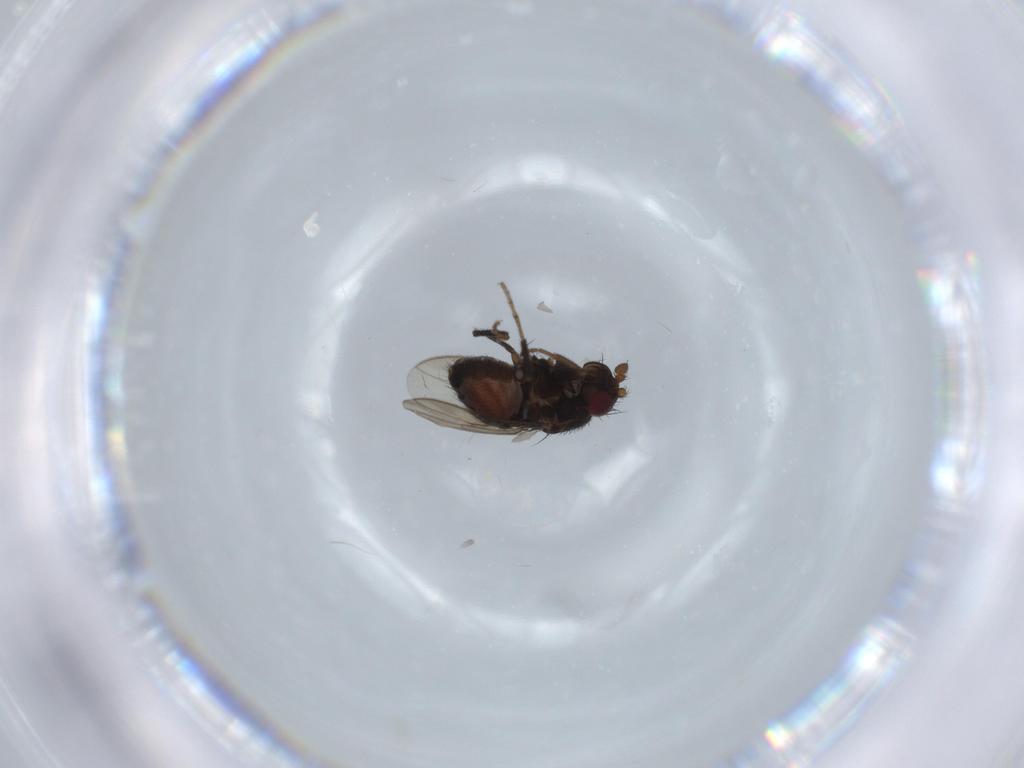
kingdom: Animalia
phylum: Arthropoda
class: Insecta
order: Diptera
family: Sphaeroceridae
